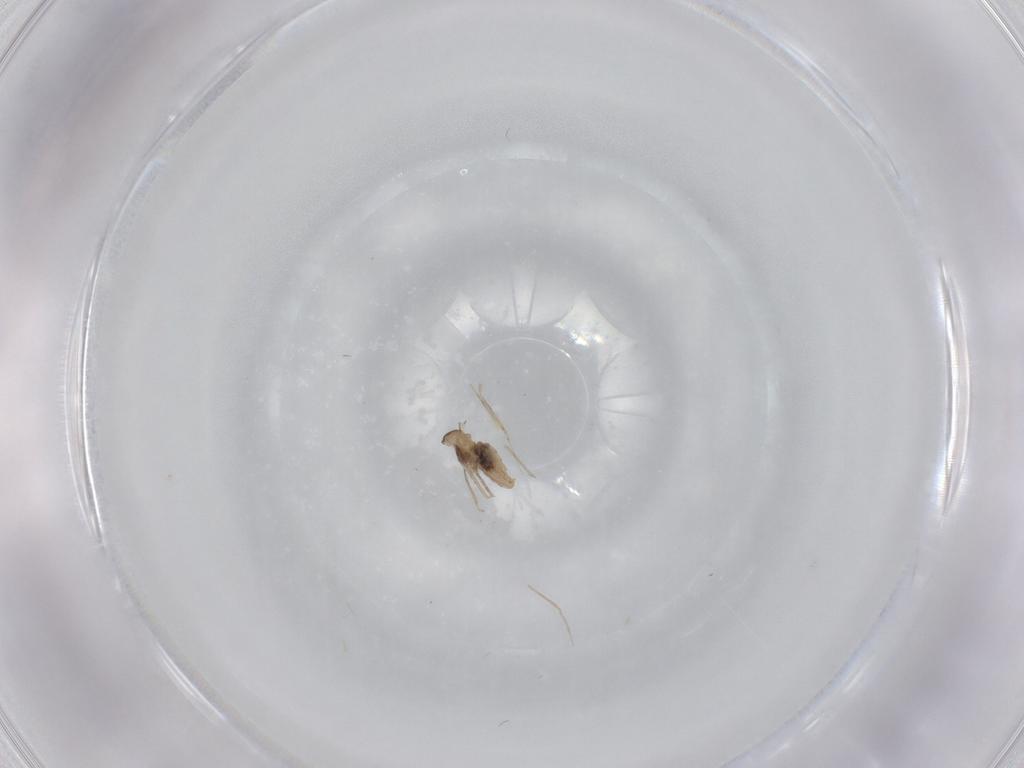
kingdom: Animalia
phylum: Arthropoda
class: Insecta
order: Diptera
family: Cecidomyiidae
